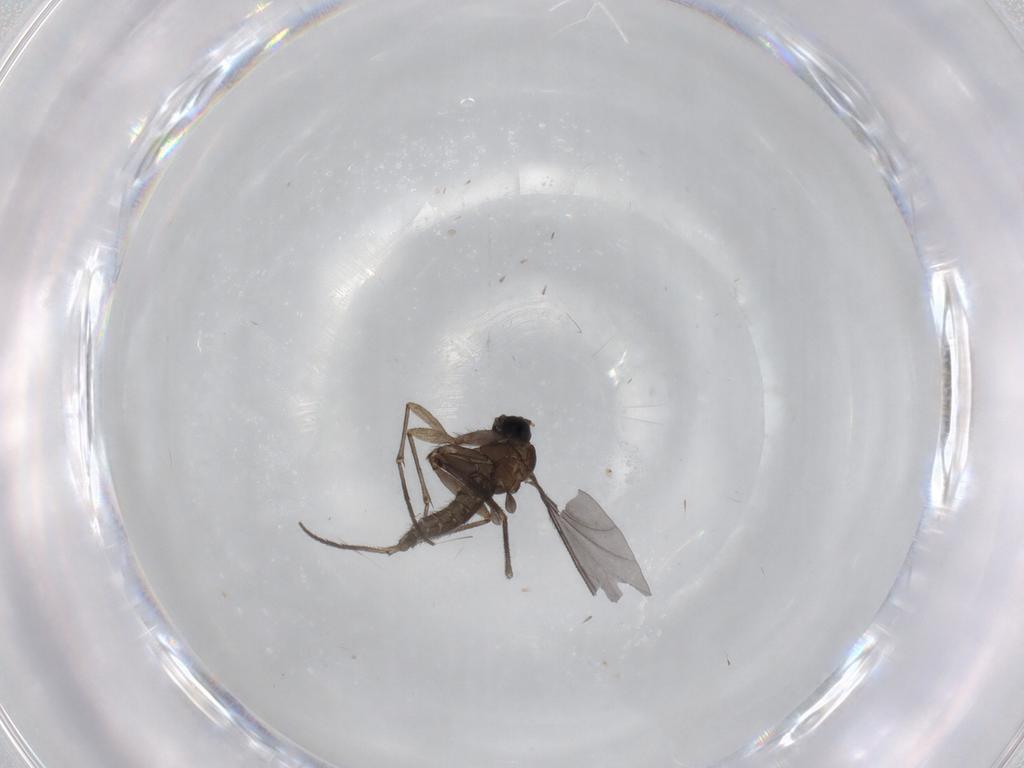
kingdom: Animalia
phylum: Arthropoda
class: Insecta
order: Diptera
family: Sciaridae
